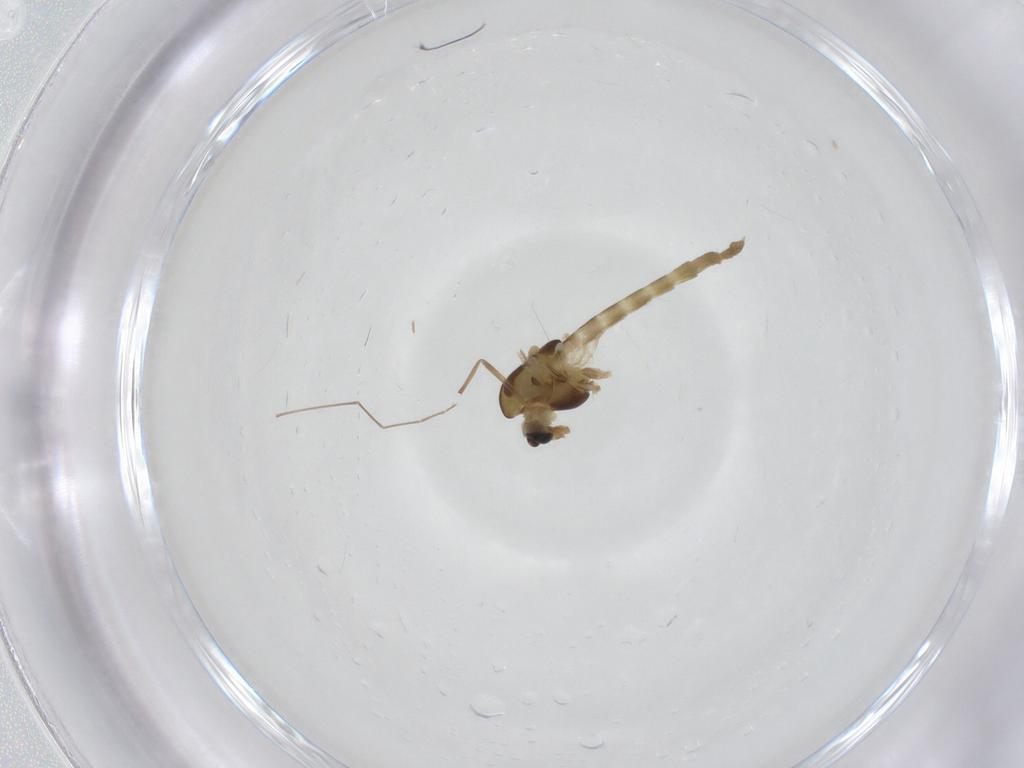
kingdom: Animalia
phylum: Arthropoda
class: Insecta
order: Diptera
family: Chironomidae
